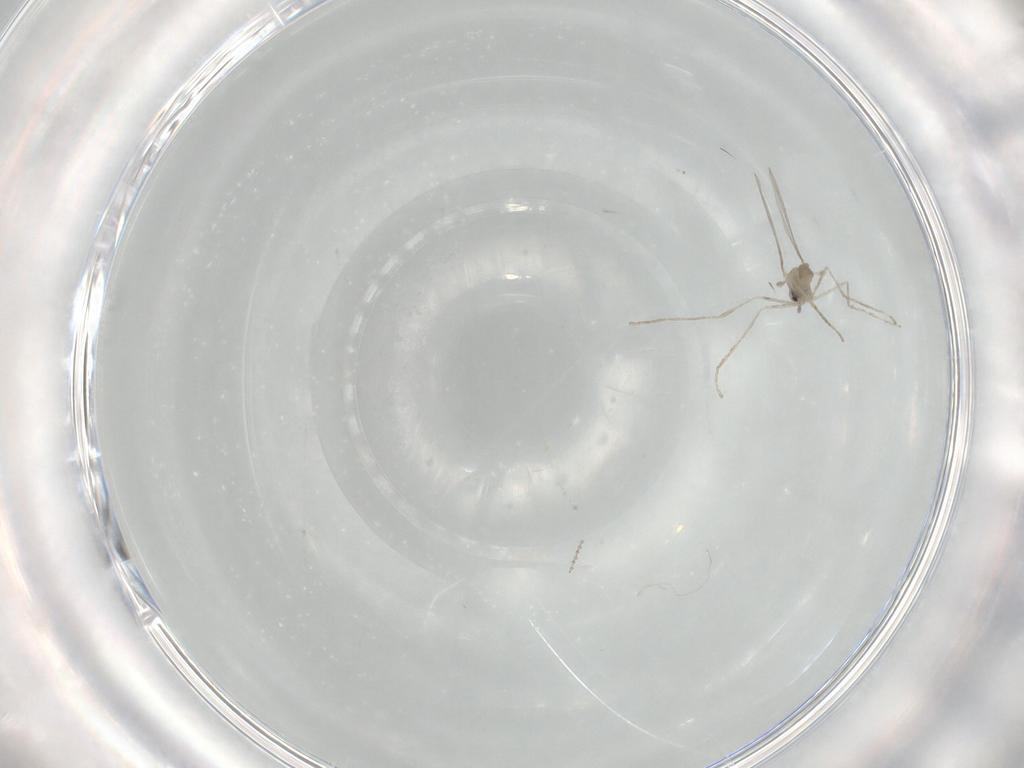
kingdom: Animalia
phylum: Arthropoda
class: Insecta
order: Diptera
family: Cecidomyiidae
